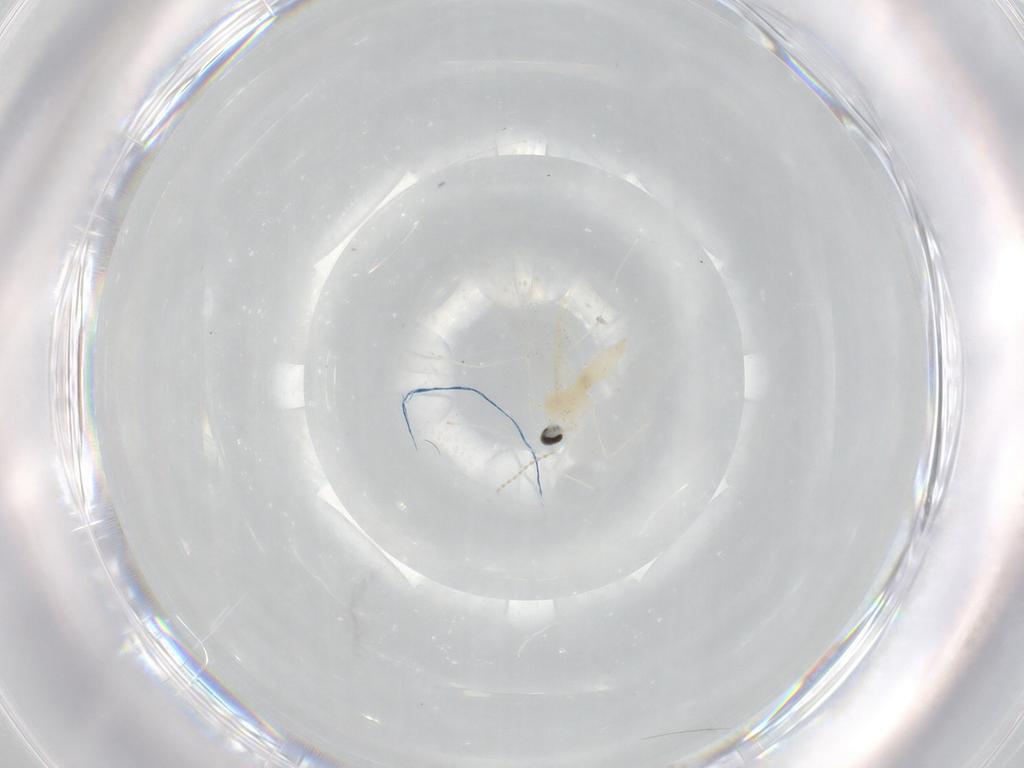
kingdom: Animalia
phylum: Arthropoda
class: Insecta
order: Diptera
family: Cecidomyiidae
